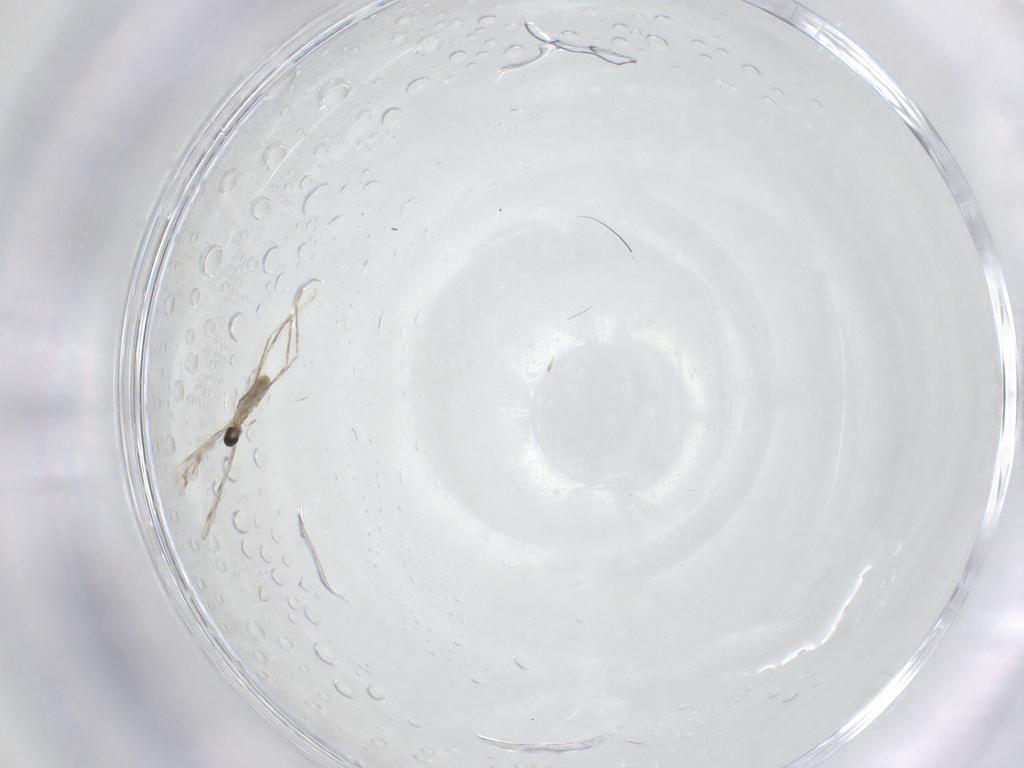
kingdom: Animalia
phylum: Arthropoda
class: Insecta
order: Diptera
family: Cecidomyiidae
